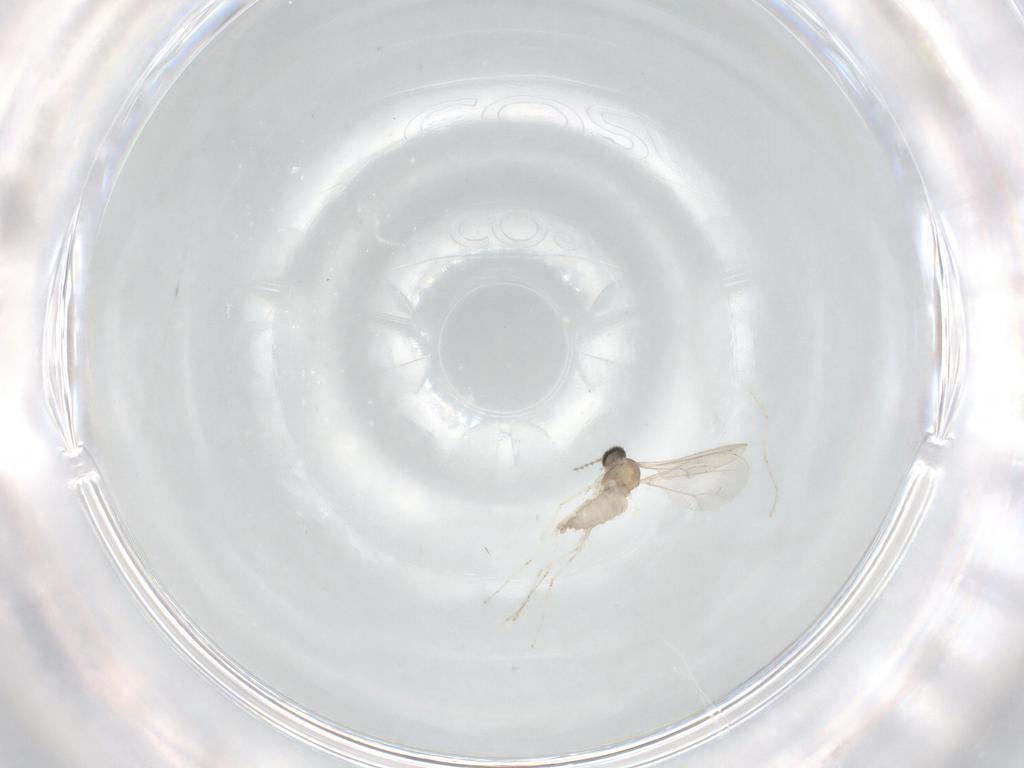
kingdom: Animalia
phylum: Arthropoda
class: Insecta
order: Diptera
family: Cecidomyiidae
